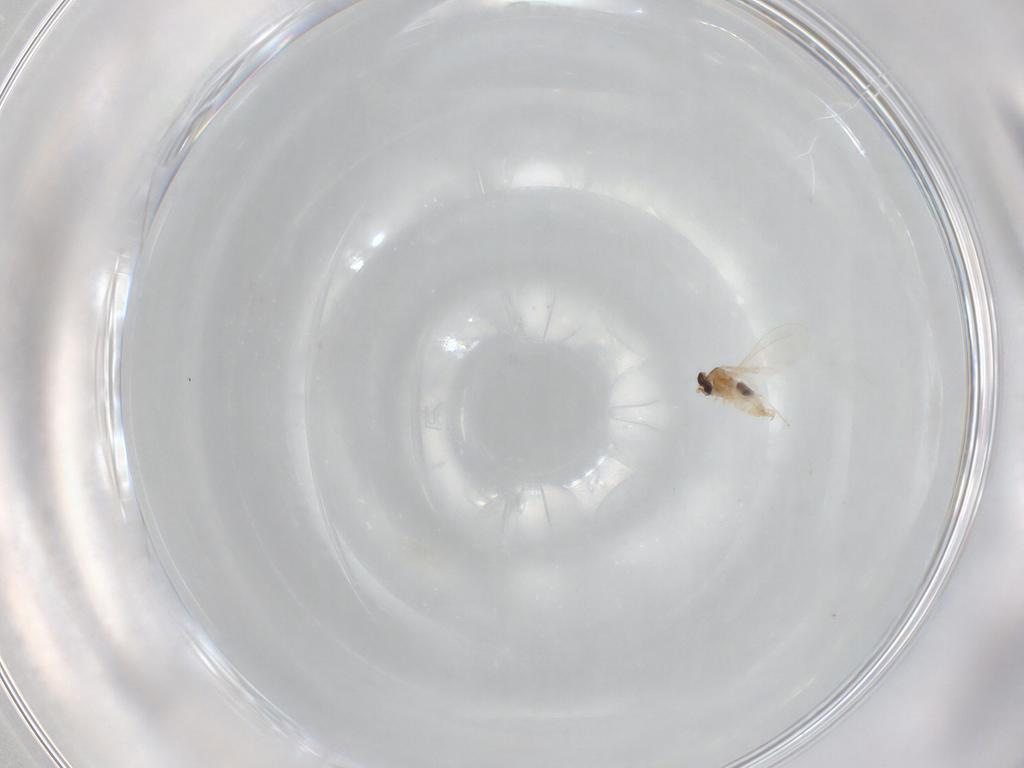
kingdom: Animalia
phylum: Arthropoda
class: Insecta
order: Diptera
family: Cecidomyiidae
